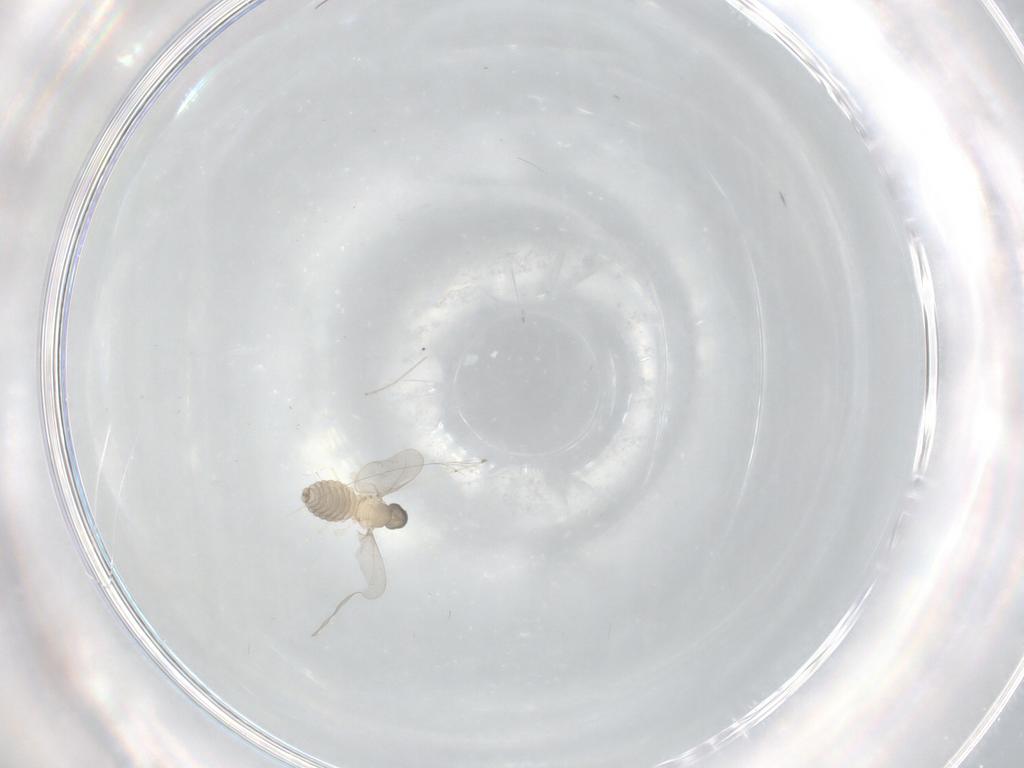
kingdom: Animalia
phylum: Arthropoda
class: Insecta
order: Diptera
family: Cecidomyiidae
